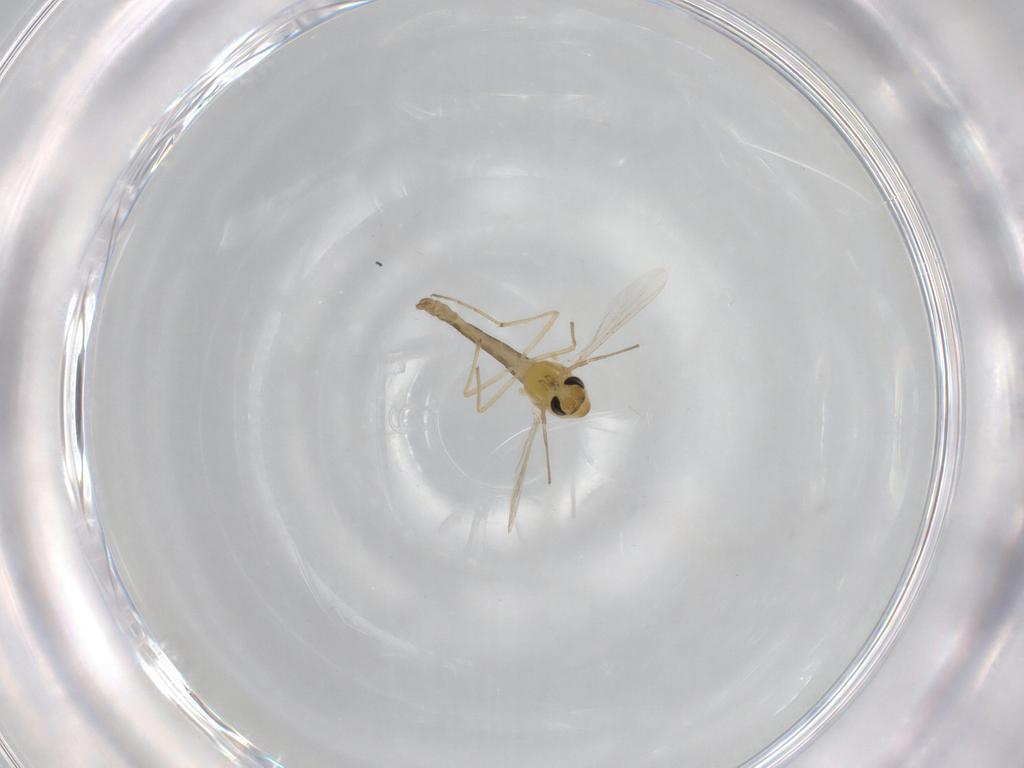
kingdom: Animalia
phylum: Arthropoda
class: Insecta
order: Diptera
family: Chironomidae
